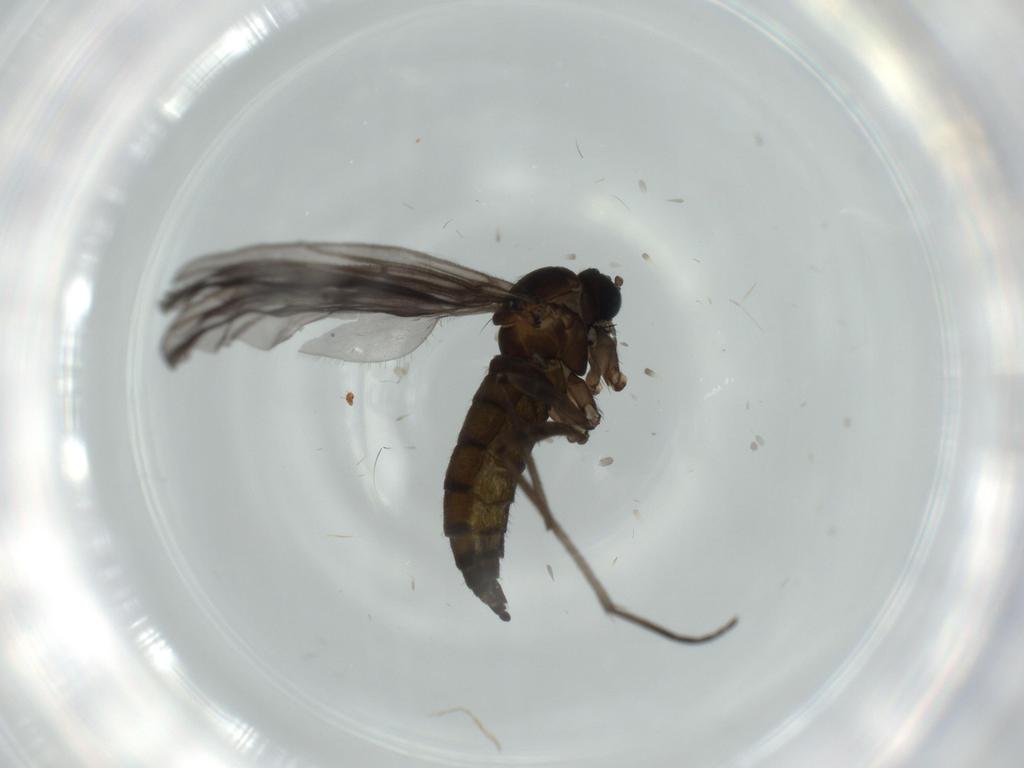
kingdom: Animalia
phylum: Arthropoda
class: Insecta
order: Diptera
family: Sciaridae
